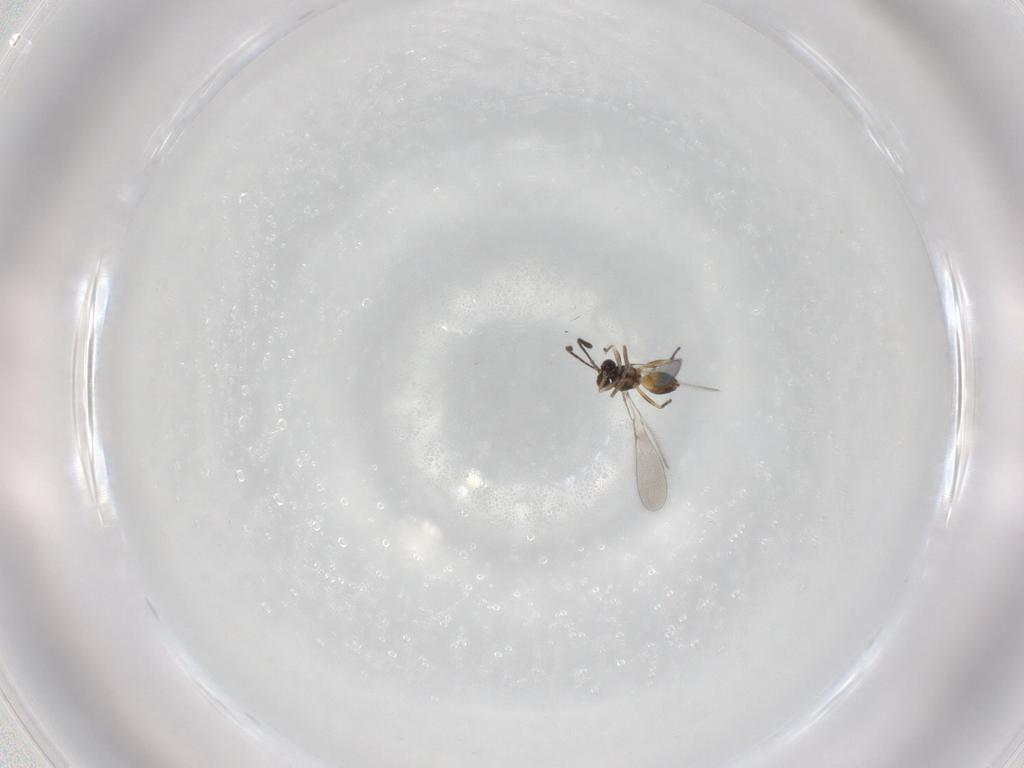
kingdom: Animalia
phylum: Arthropoda
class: Insecta
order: Hymenoptera
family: Mymaridae
